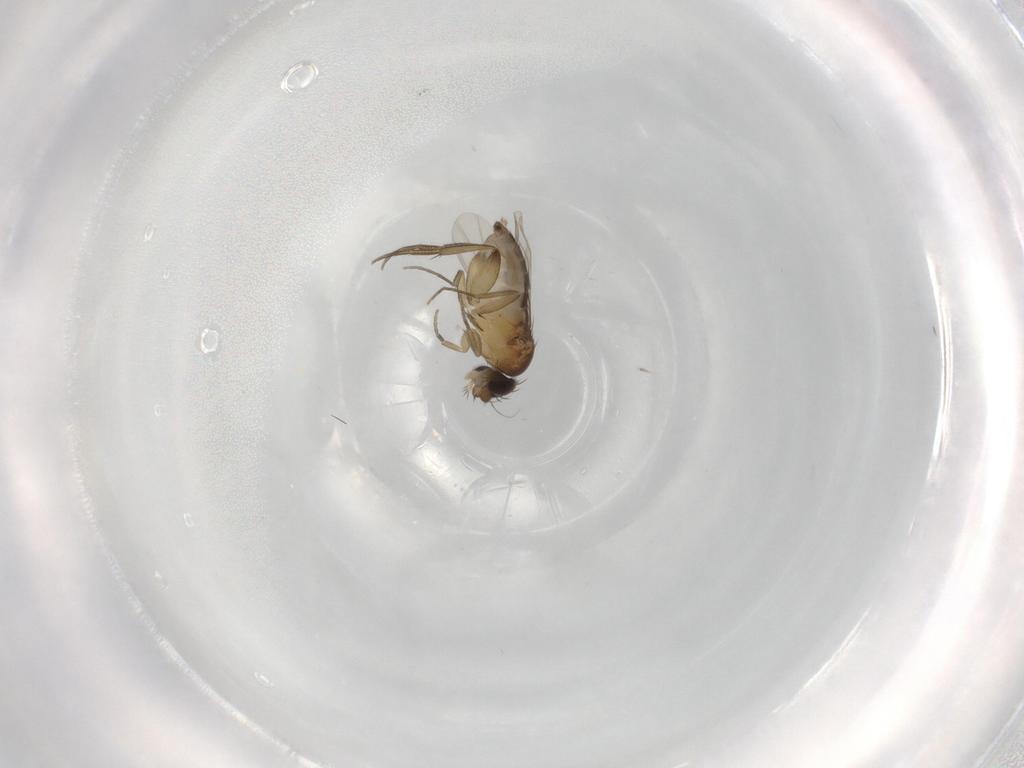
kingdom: Animalia
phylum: Arthropoda
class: Insecta
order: Diptera
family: Phoridae
